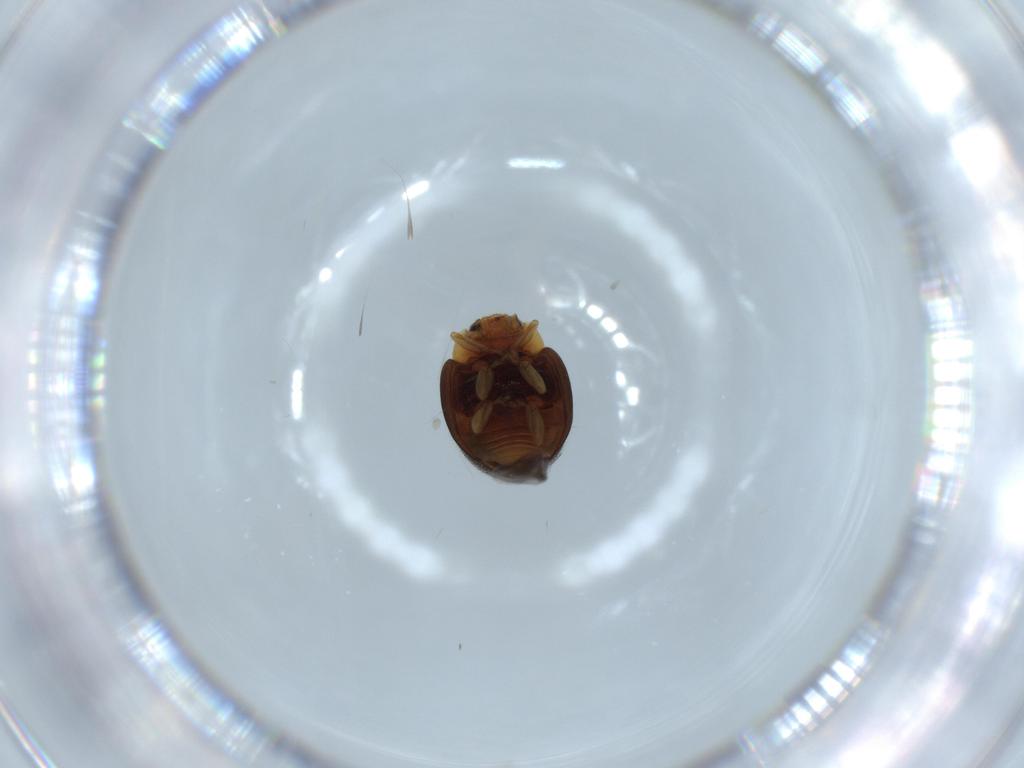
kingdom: Animalia
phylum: Arthropoda
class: Insecta
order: Coleoptera
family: Coccinellidae
